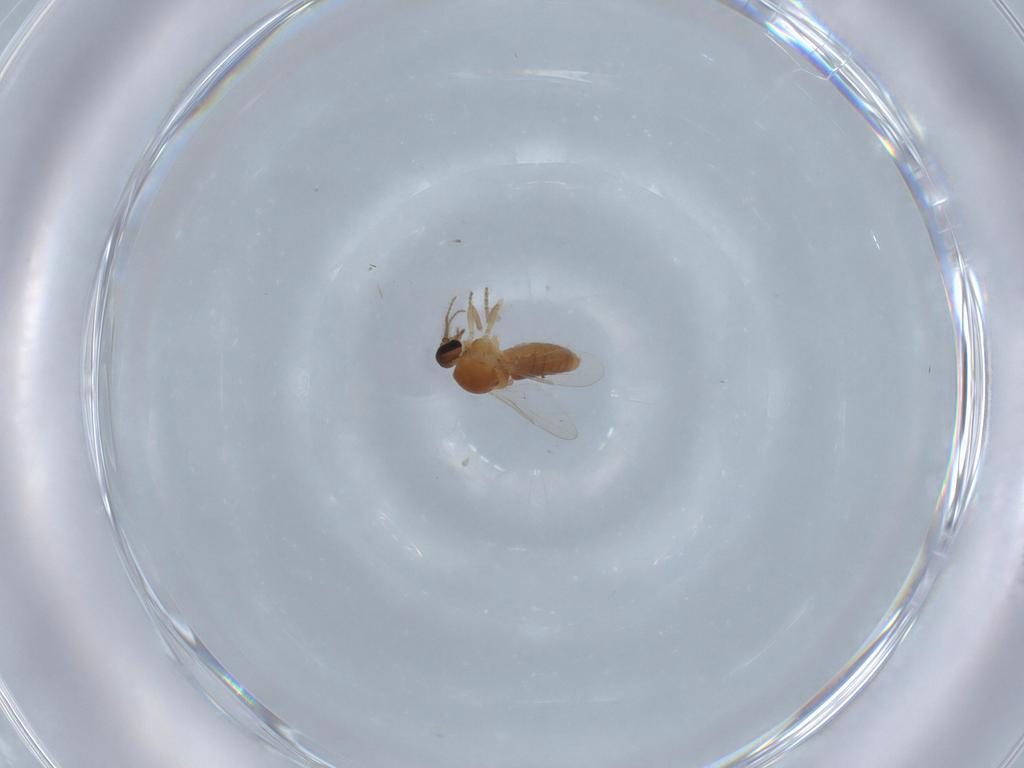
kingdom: Animalia
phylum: Arthropoda
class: Insecta
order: Diptera
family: Ceratopogonidae
